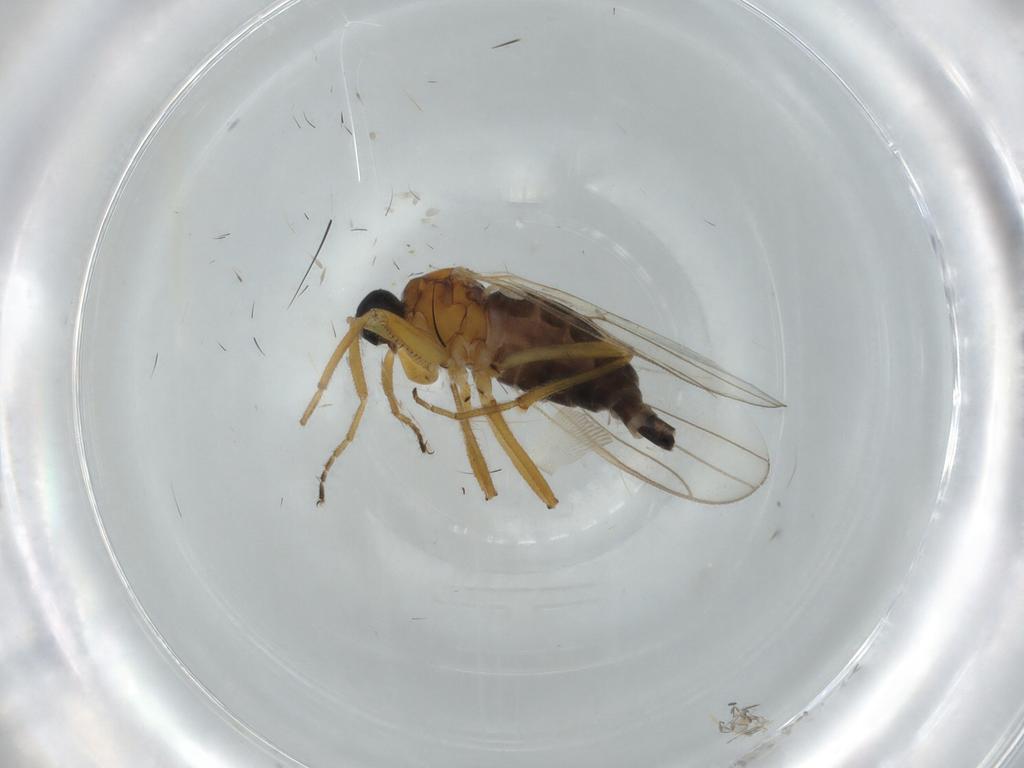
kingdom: Animalia
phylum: Arthropoda
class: Insecta
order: Diptera
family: Hybotidae
